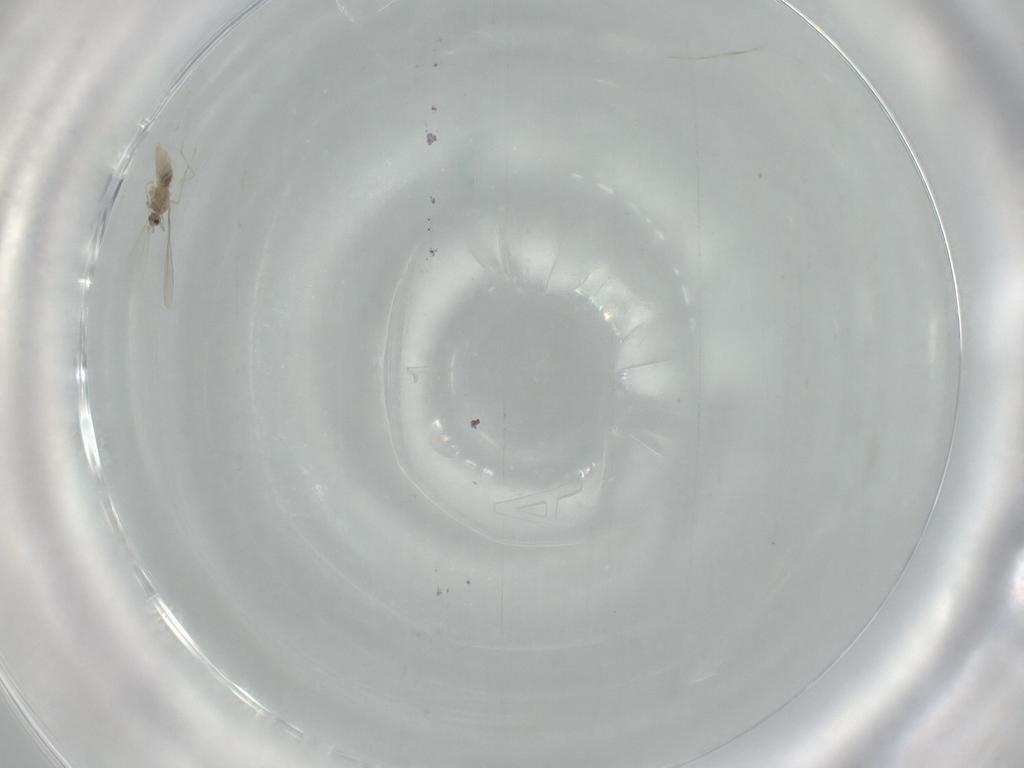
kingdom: Animalia
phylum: Arthropoda
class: Insecta
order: Diptera
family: Cecidomyiidae
